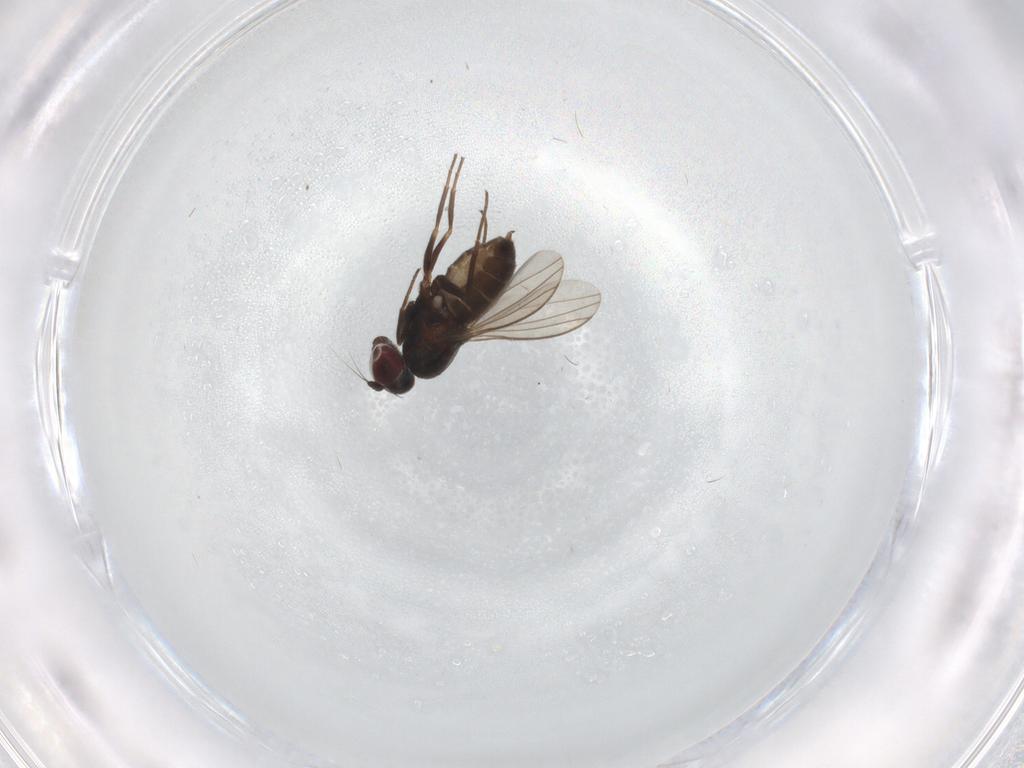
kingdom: Animalia
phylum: Arthropoda
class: Insecta
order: Diptera
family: Dolichopodidae
